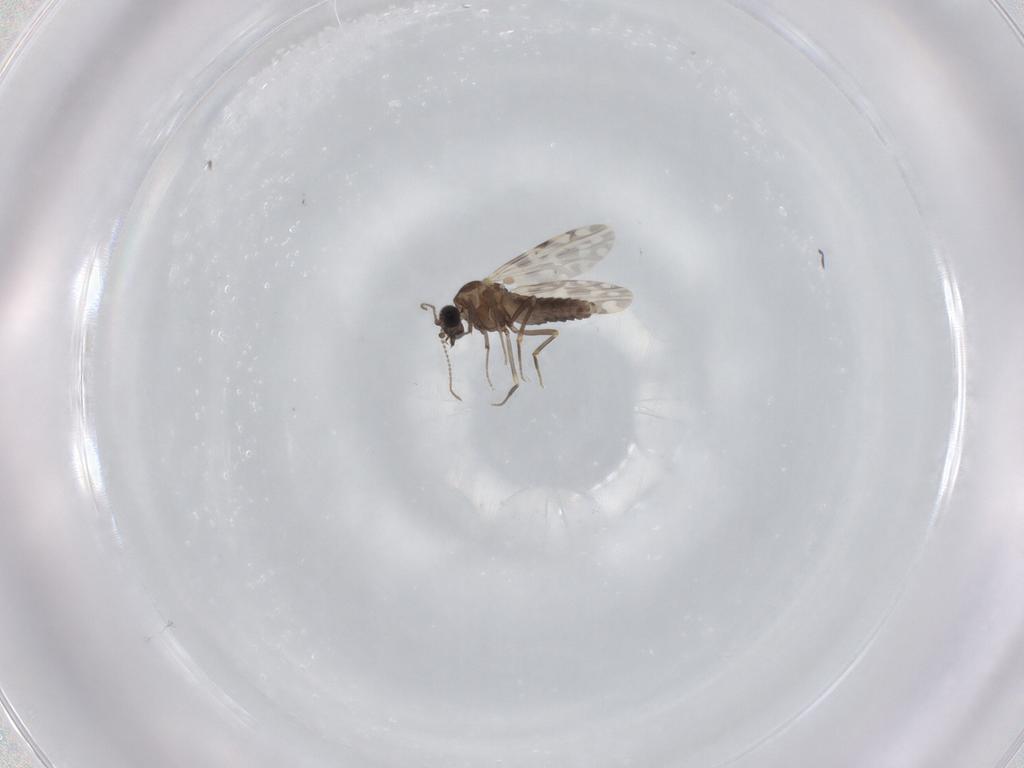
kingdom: Animalia
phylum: Arthropoda
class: Insecta
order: Diptera
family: Ceratopogonidae
